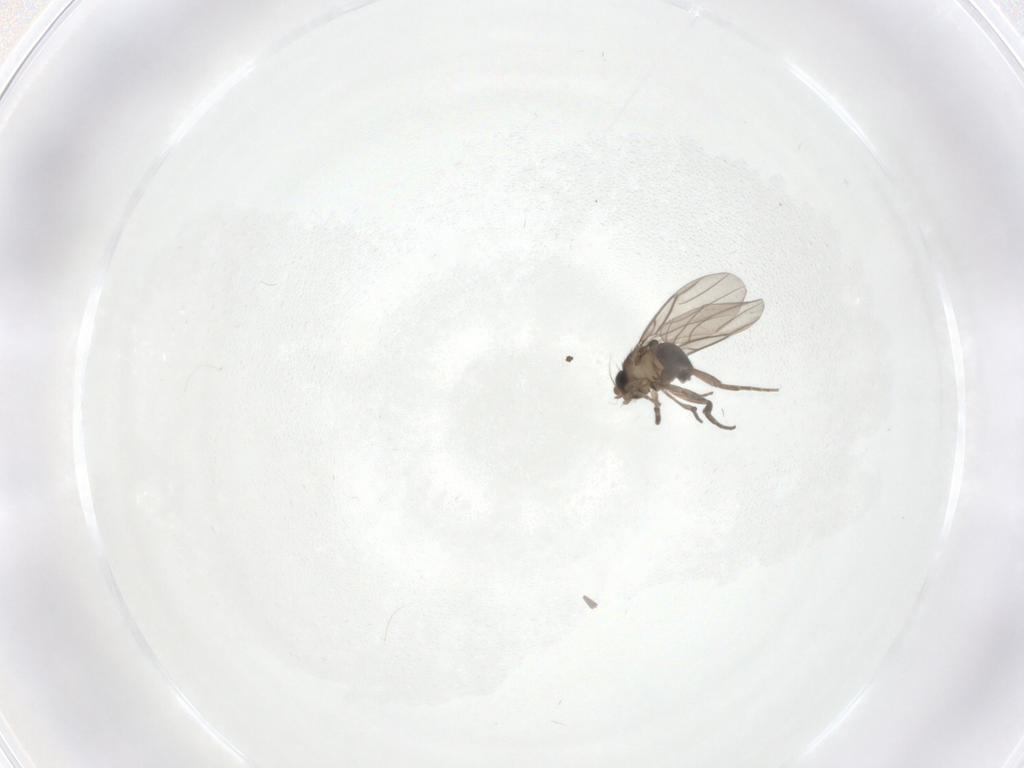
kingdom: Animalia
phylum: Arthropoda
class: Insecta
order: Diptera
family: Phoridae
